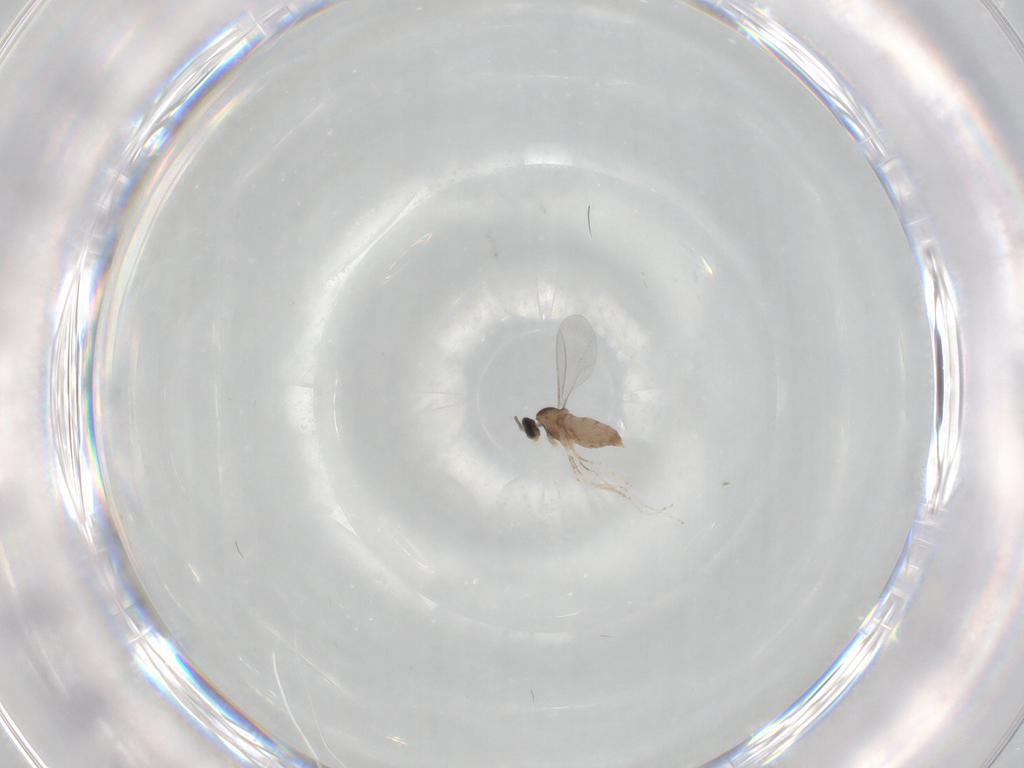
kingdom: Animalia
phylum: Arthropoda
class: Insecta
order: Diptera
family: Cecidomyiidae
